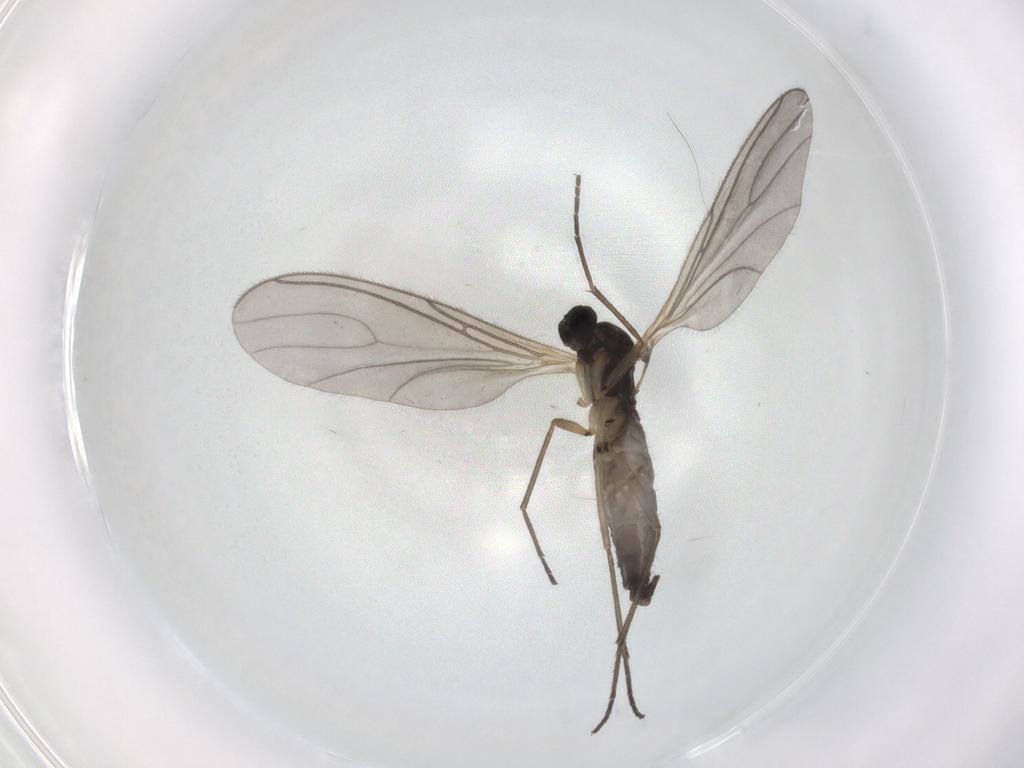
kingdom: Animalia
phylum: Arthropoda
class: Insecta
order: Diptera
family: Sciaridae
